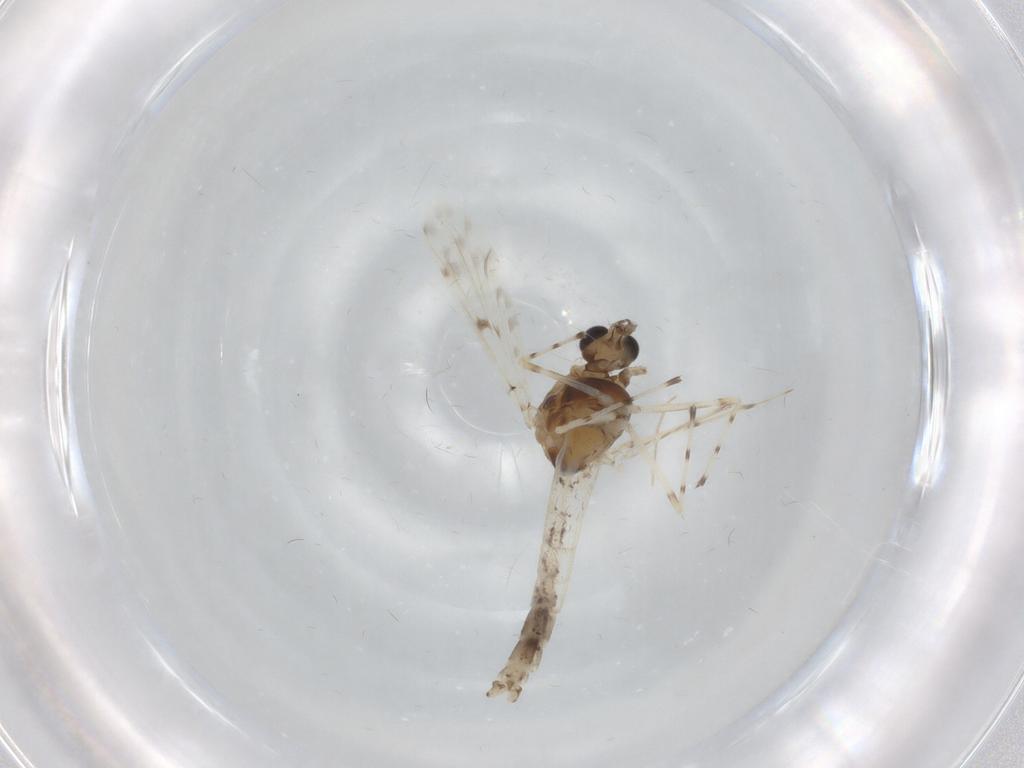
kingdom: Animalia
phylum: Arthropoda
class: Insecta
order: Diptera
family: Chironomidae
